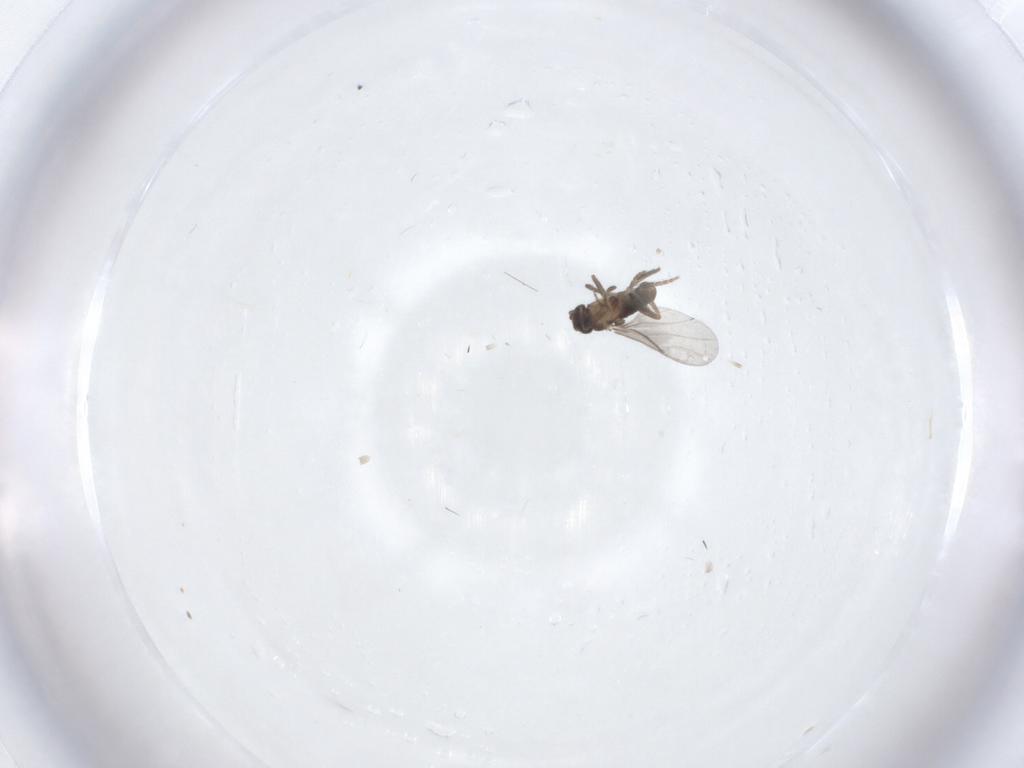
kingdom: Animalia
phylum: Arthropoda
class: Insecta
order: Diptera
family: Phoridae
